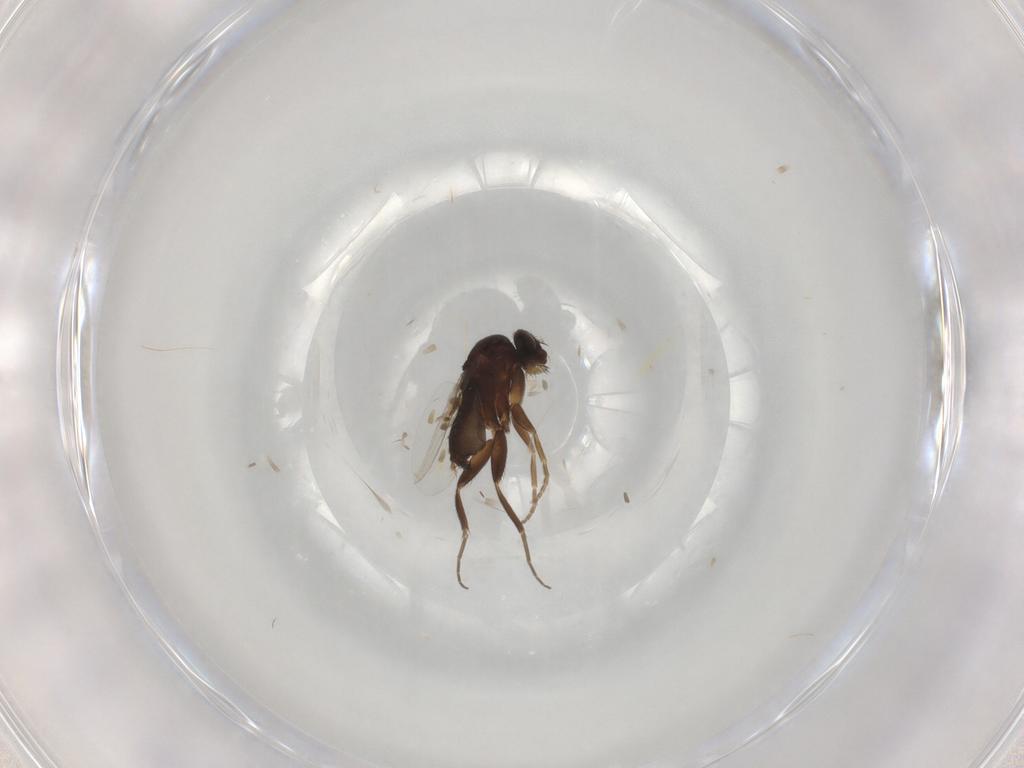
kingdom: Animalia
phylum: Arthropoda
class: Insecta
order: Diptera
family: Phoridae
